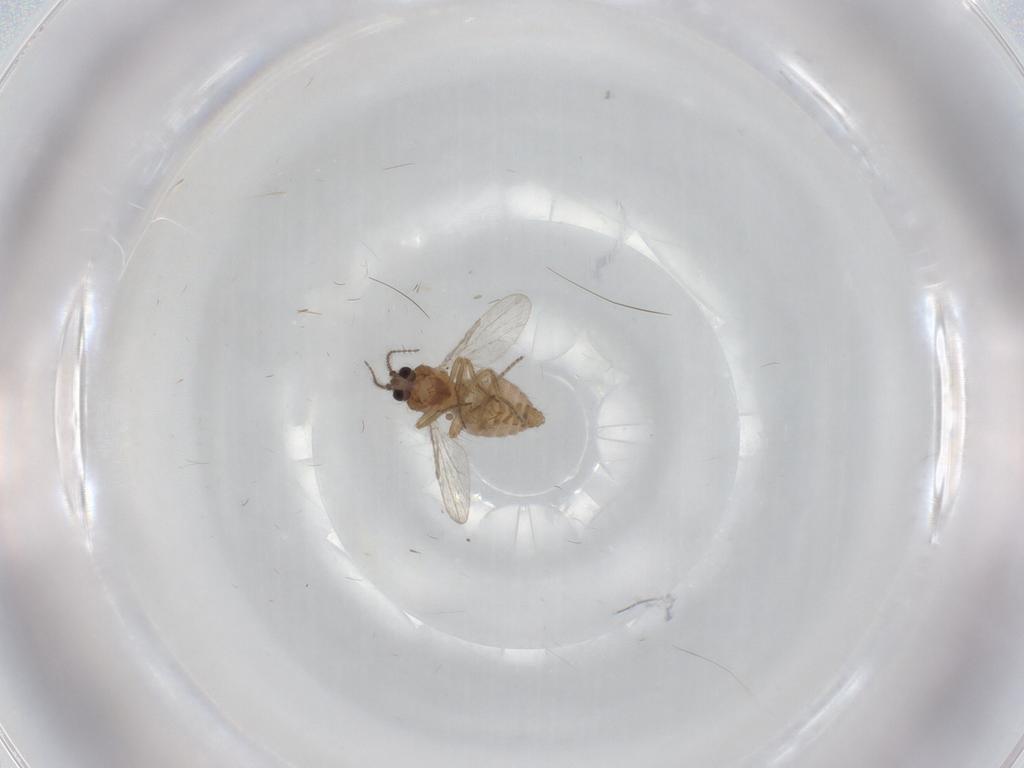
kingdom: Animalia
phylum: Arthropoda
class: Insecta
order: Diptera
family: Ceratopogonidae
